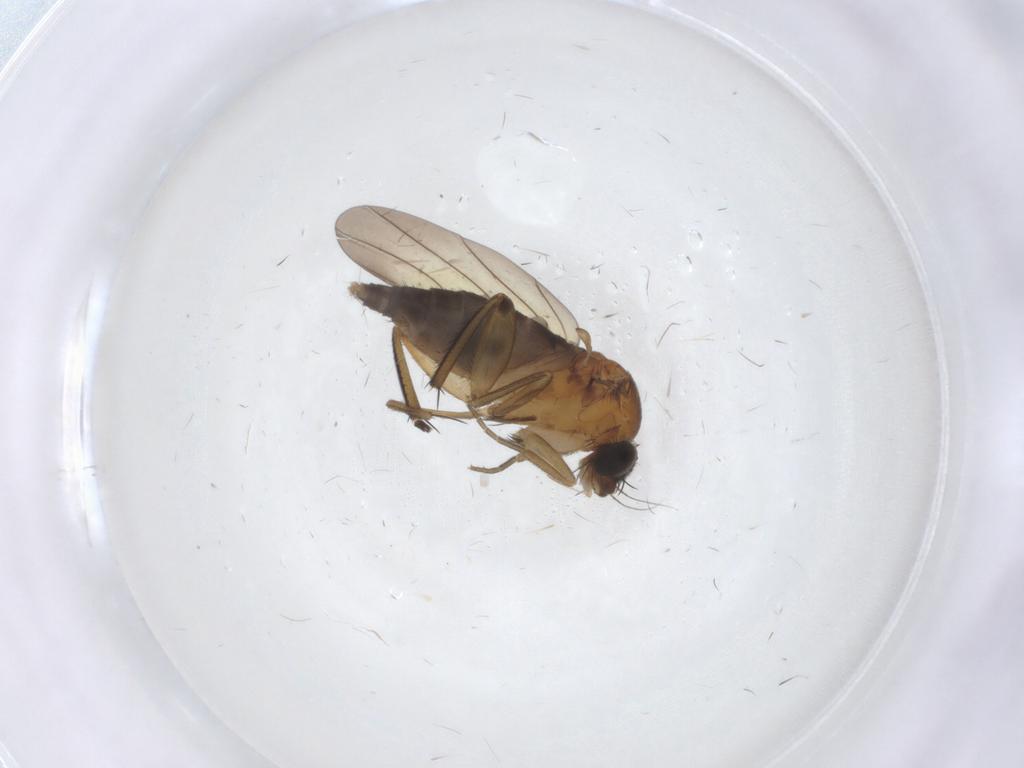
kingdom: Animalia
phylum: Arthropoda
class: Insecta
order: Diptera
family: Phoridae
